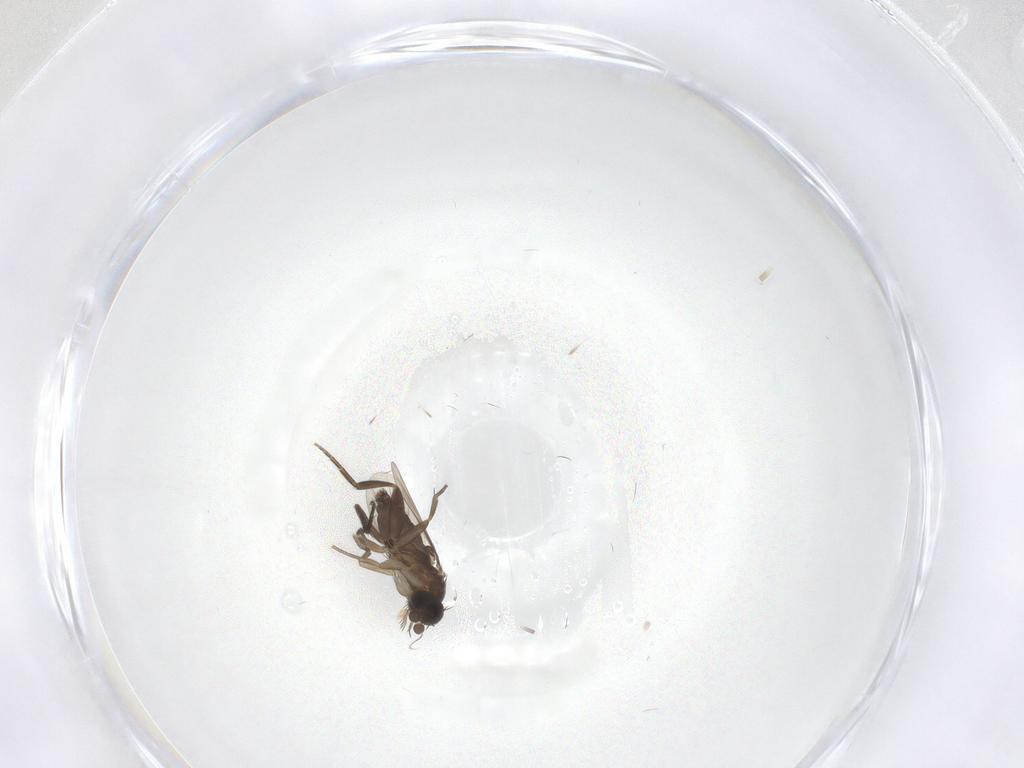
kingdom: Animalia
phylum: Arthropoda
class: Insecta
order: Diptera
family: Phoridae
